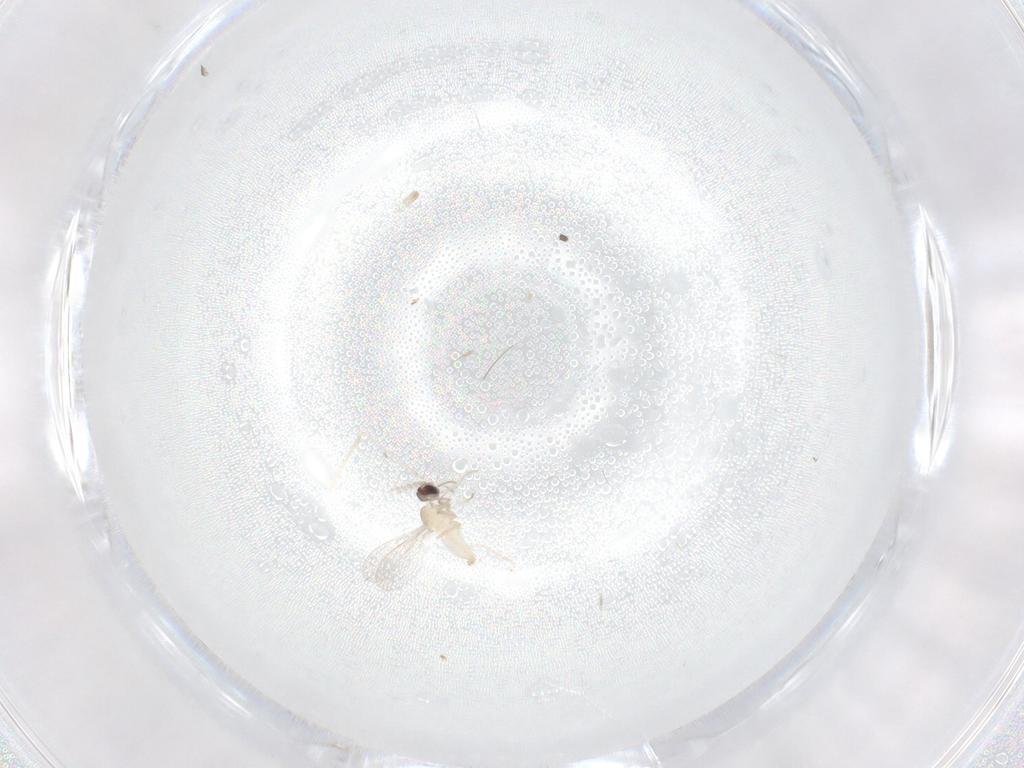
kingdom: Animalia
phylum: Arthropoda
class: Insecta
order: Diptera
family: Cecidomyiidae
